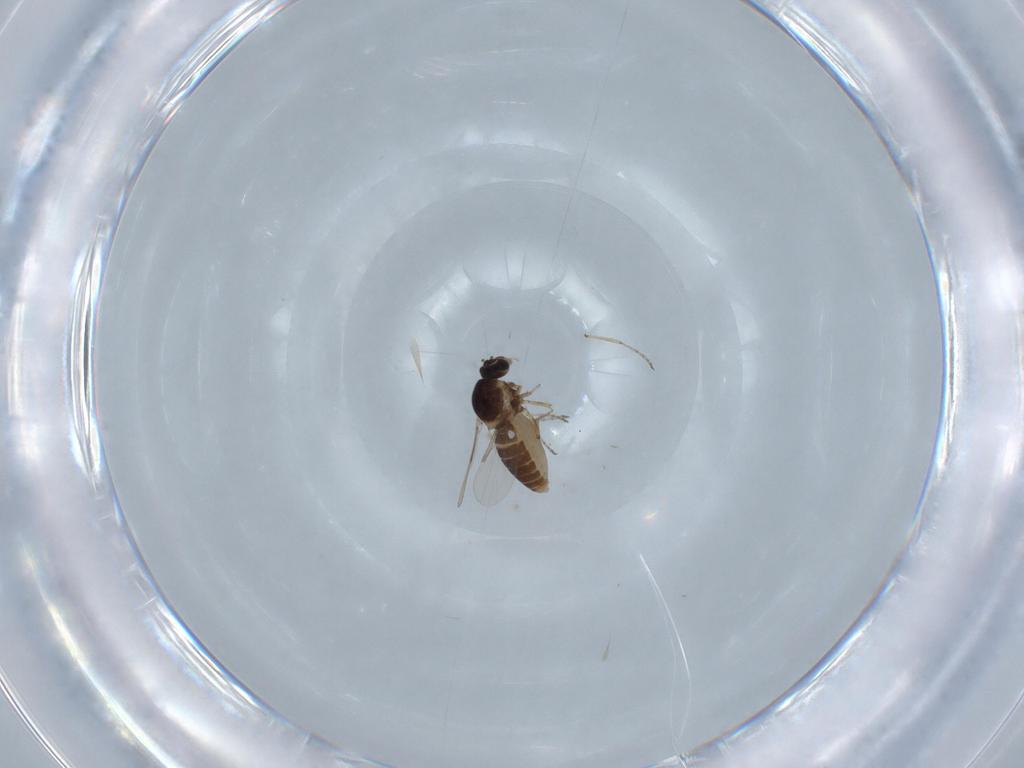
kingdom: Animalia
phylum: Arthropoda
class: Insecta
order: Diptera
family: Ceratopogonidae
